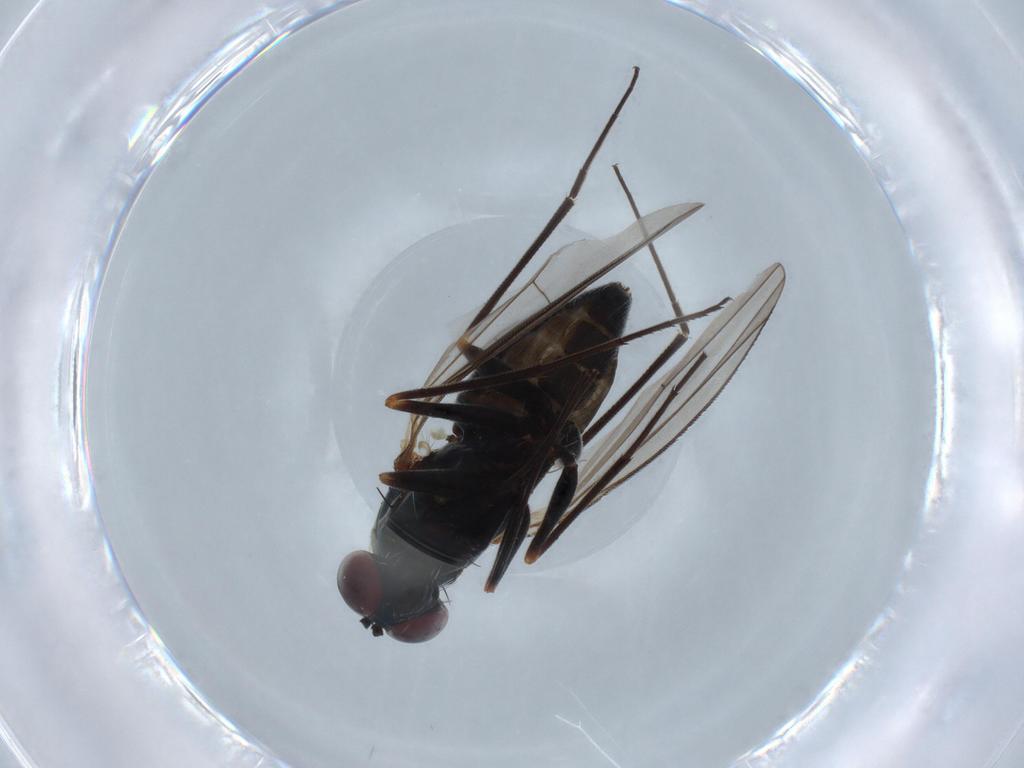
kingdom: Animalia
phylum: Arthropoda
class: Insecta
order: Diptera
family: Dolichopodidae
